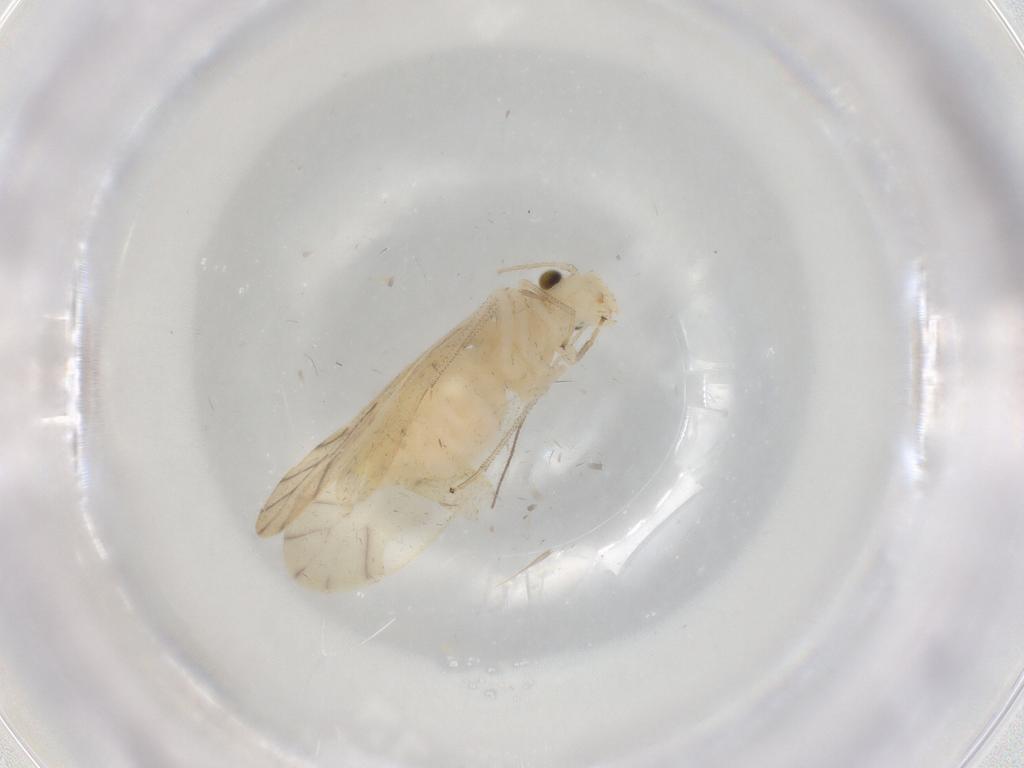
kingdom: Animalia
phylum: Arthropoda
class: Insecta
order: Psocodea
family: Caeciliusidae
